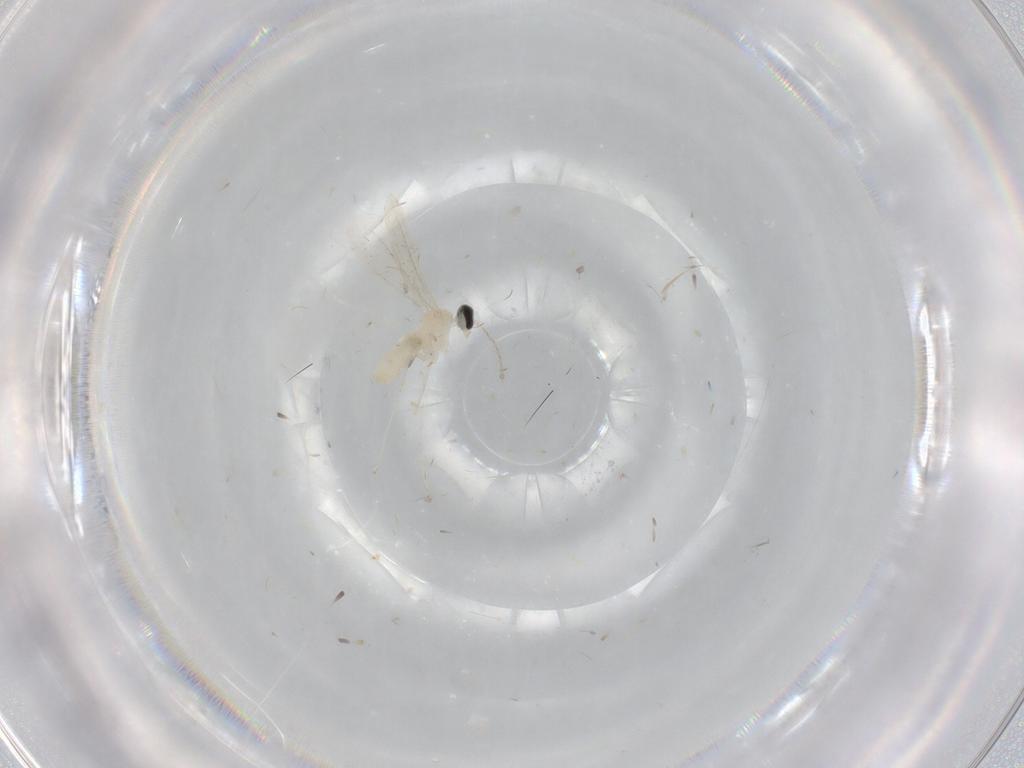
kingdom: Animalia
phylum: Arthropoda
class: Insecta
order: Diptera
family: Cecidomyiidae
